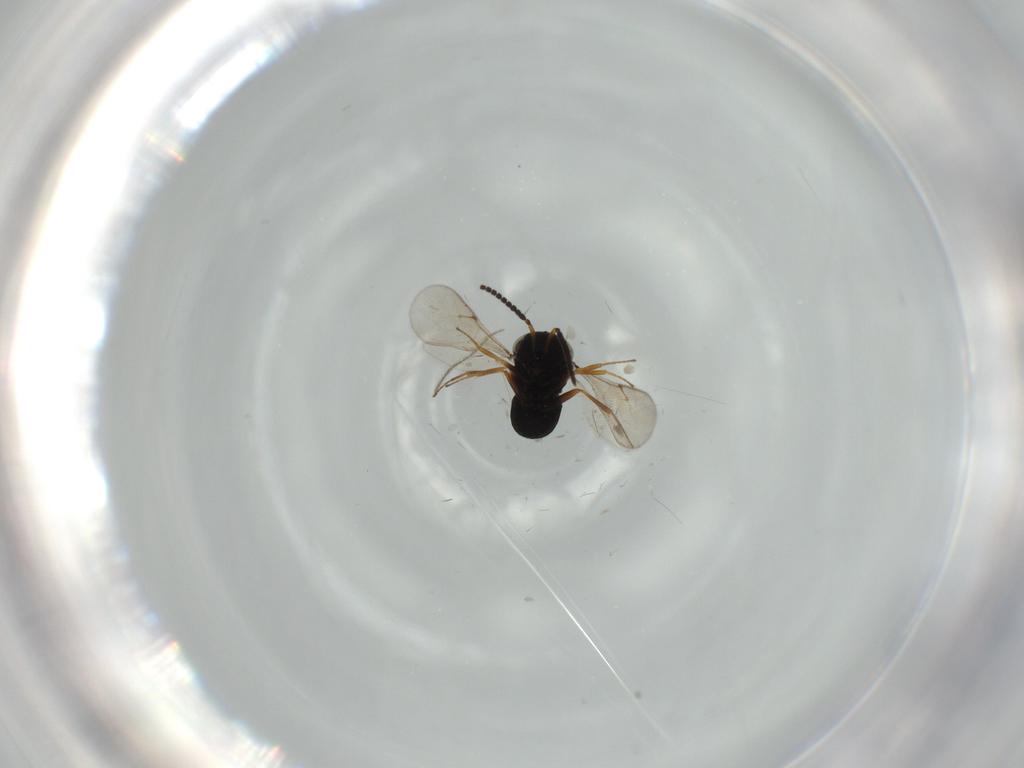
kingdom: Animalia
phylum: Arthropoda
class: Insecta
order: Hymenoptera
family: Scelionidae
